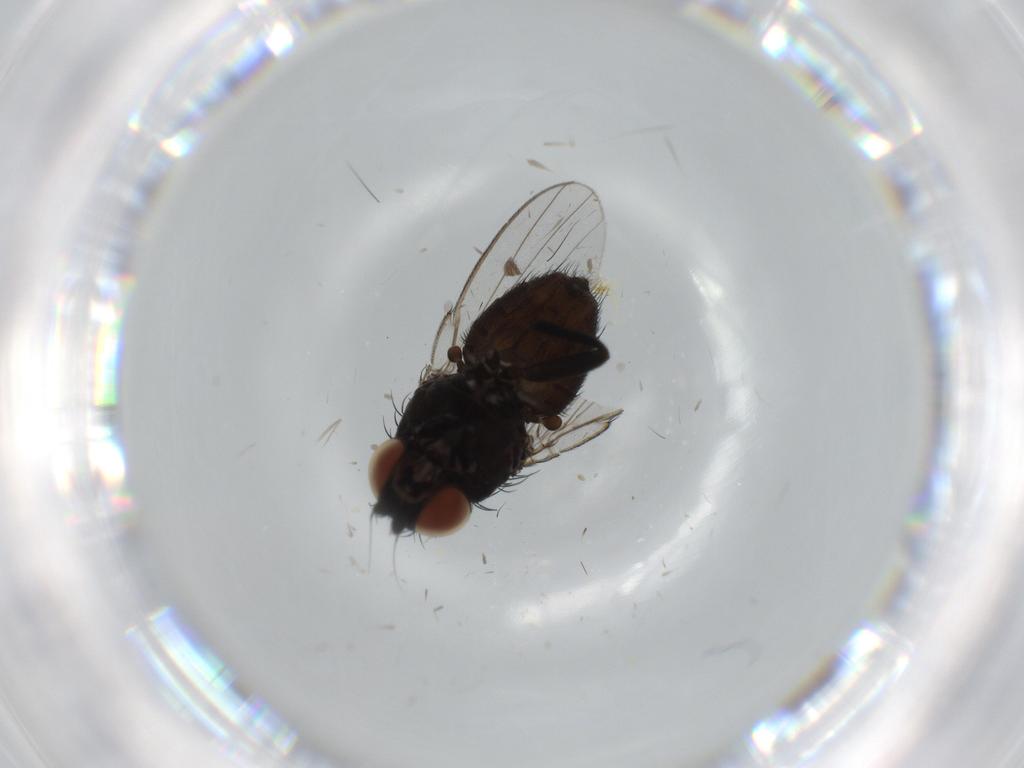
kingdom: Animalia
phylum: Arthropoda
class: Insecta
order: Diptera
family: Milichiidae
